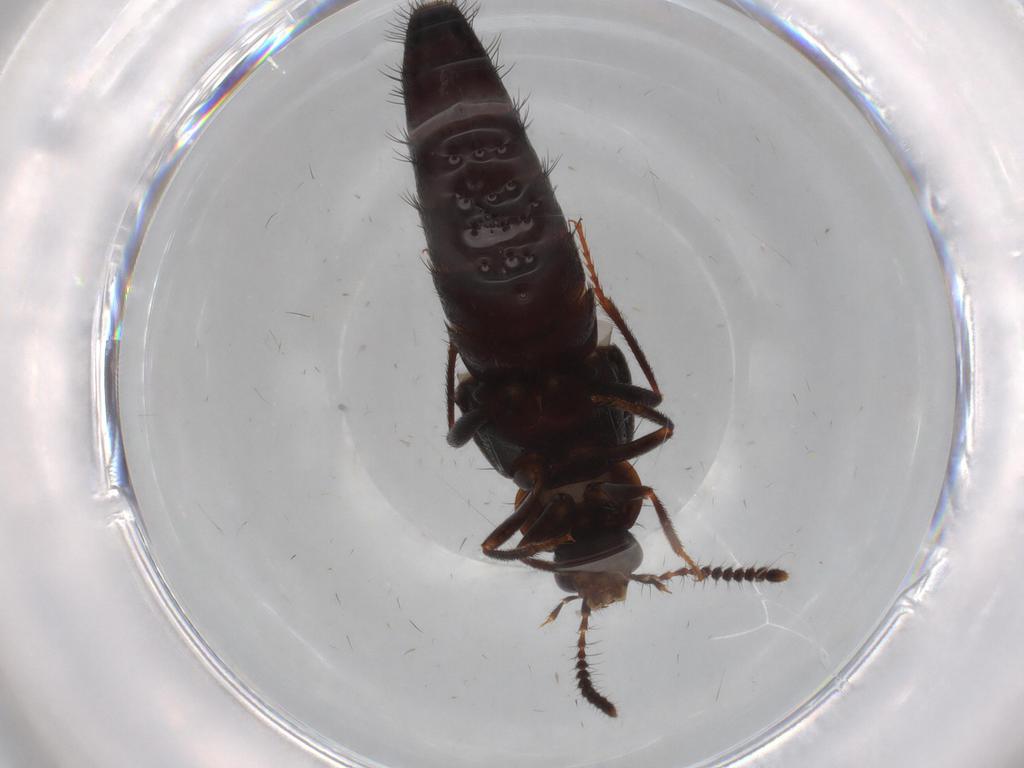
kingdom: Animalia
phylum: Arthropoda
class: Insecta
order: Coleoptera
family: Staphylinidae
